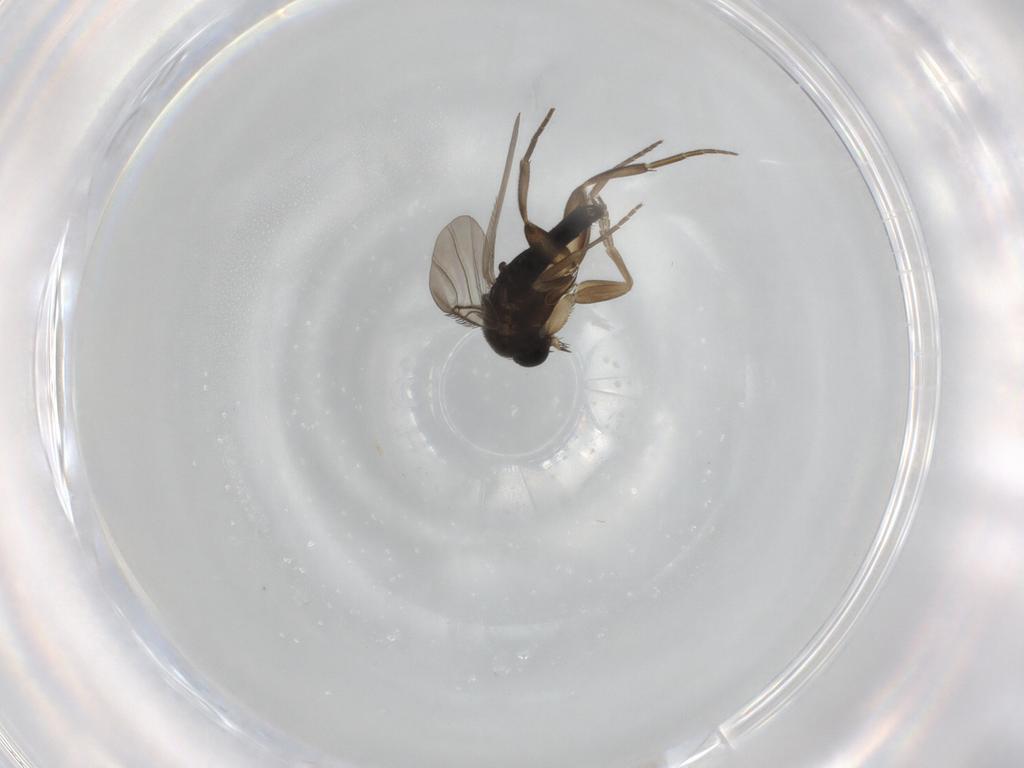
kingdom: Animalia
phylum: Arthropoda
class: Insecta
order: Diptera
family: Phoridae
